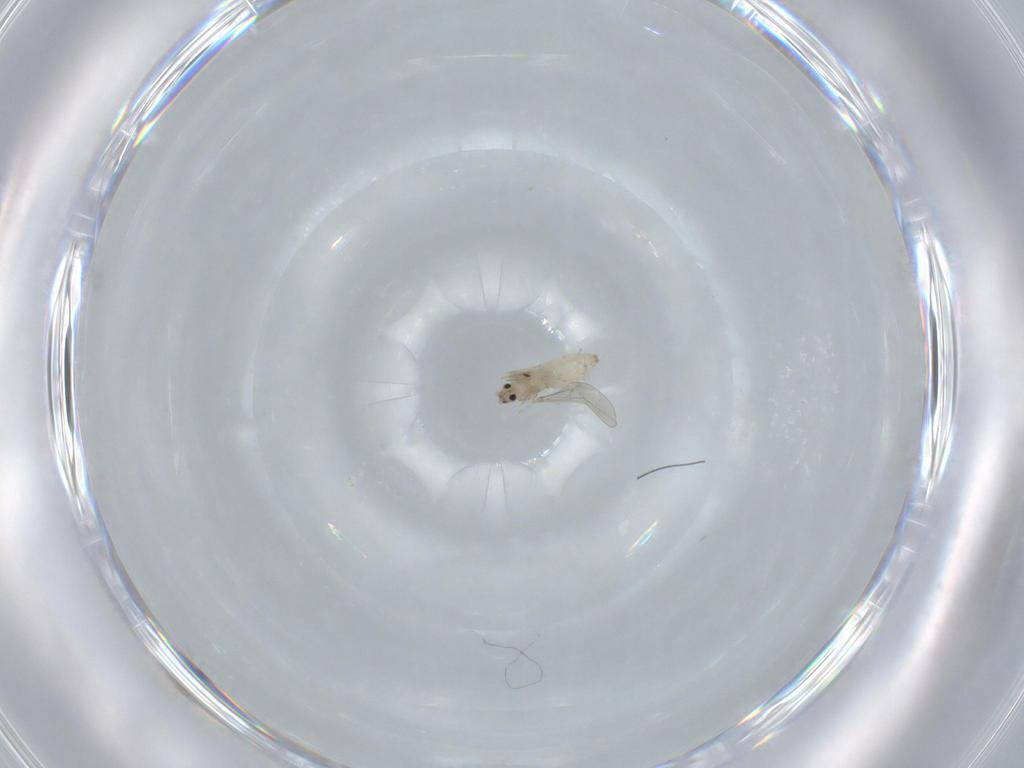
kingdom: Animalia
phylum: Arthropoda
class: Insecta
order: Diptera
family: Cecidomyiidae
